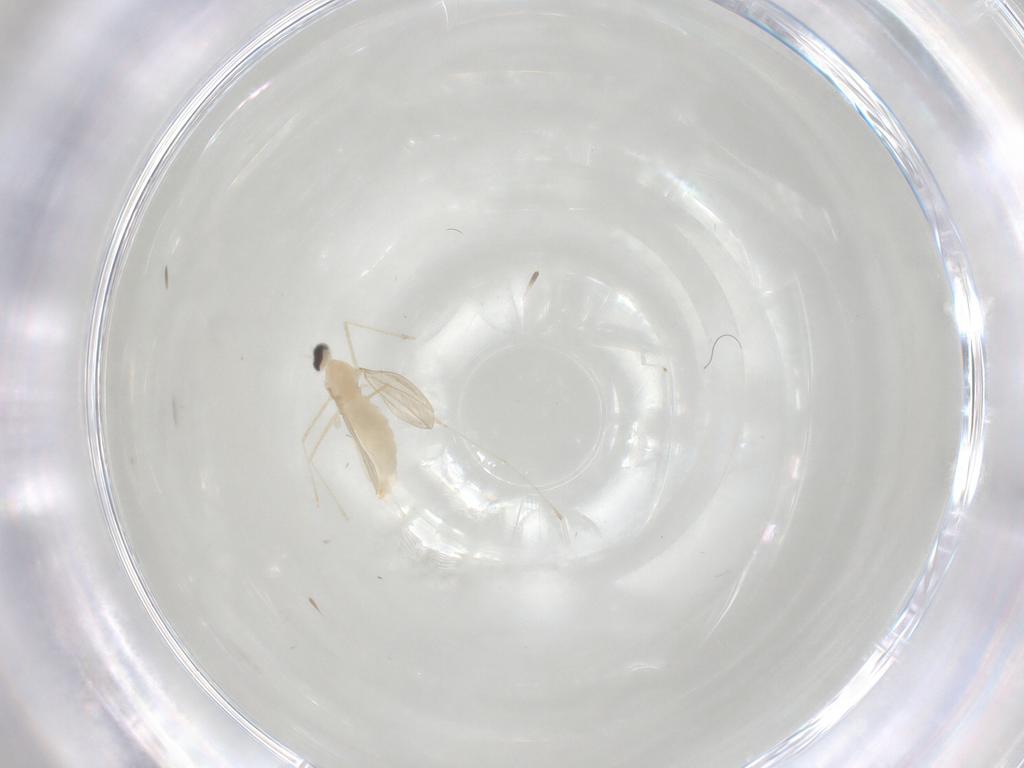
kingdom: Animalia
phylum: Arthropoda
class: Insecta
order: Diptera
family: Cecidomyiidae
